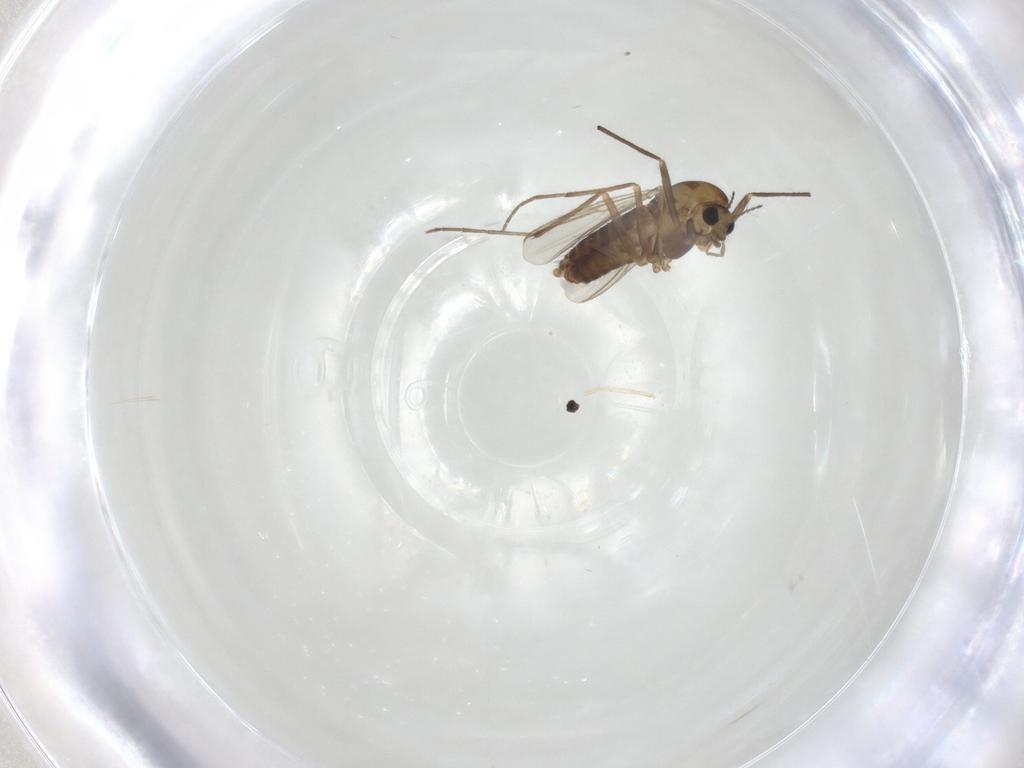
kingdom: Animalia
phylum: Arthropoda
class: Insecta
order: Diptera
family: Chironomidae
